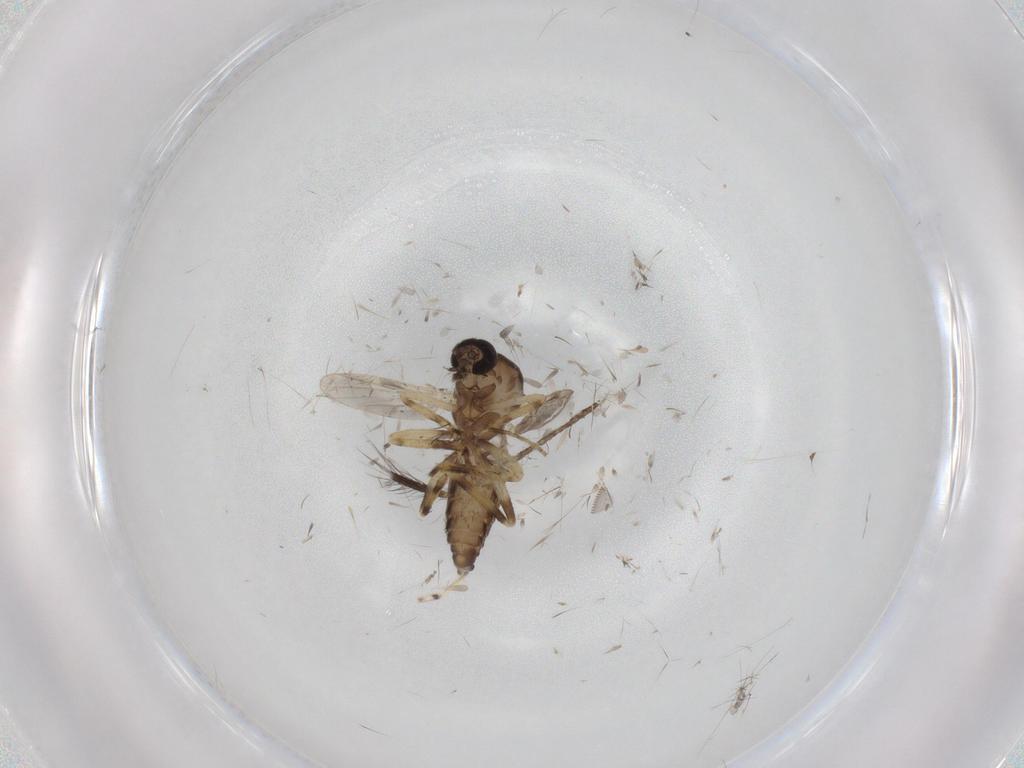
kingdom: Animalia
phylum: Arthropoda
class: Insecta
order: Diptera
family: Ceratopogonidae
